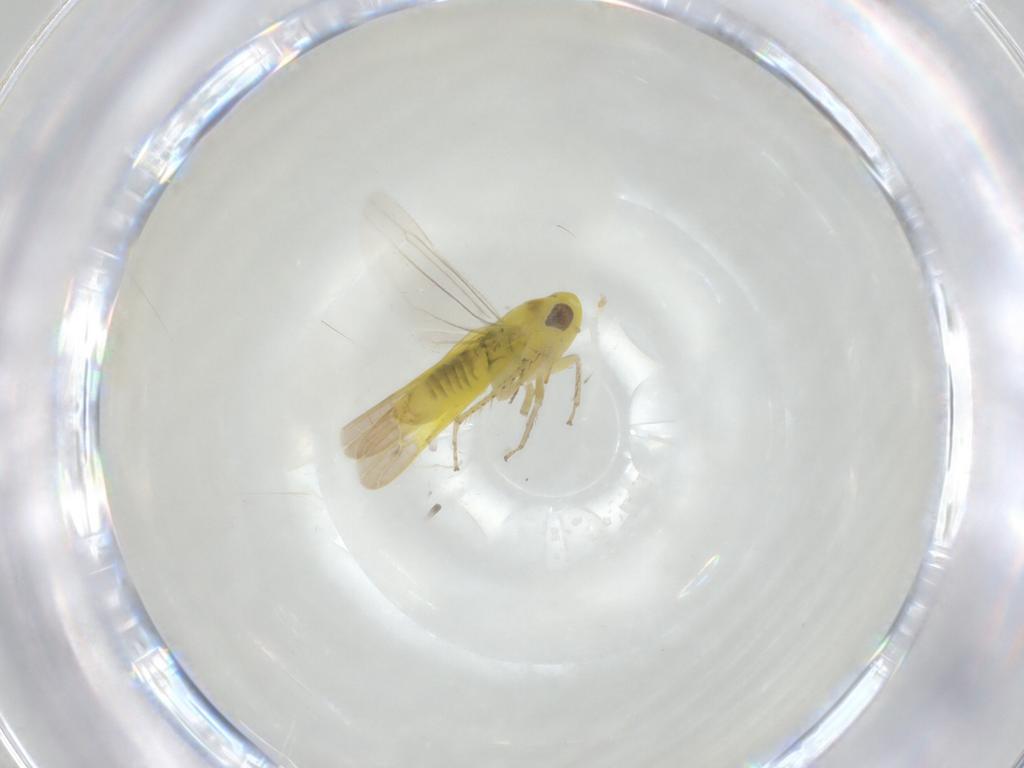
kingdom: Animalia
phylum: Arthropoda
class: Insecta
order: Hemiptera
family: Cicadellidae
